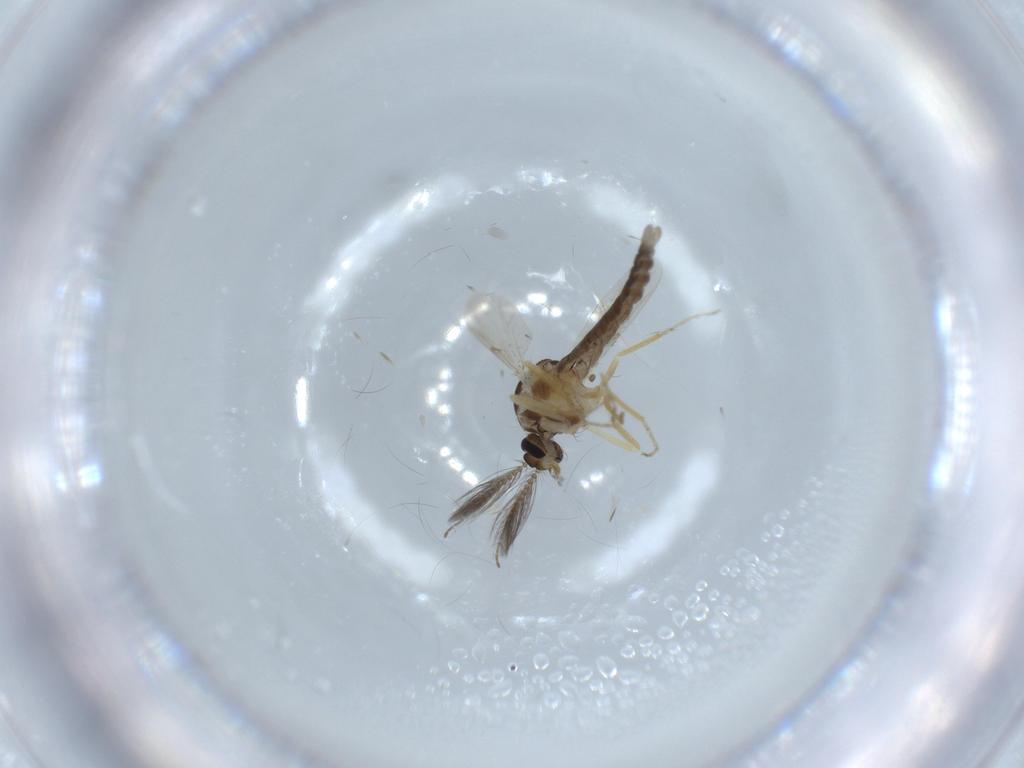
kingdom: Animalia
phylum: Arthropoda
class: Insecta
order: Diptera
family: Ceratopogonidae
